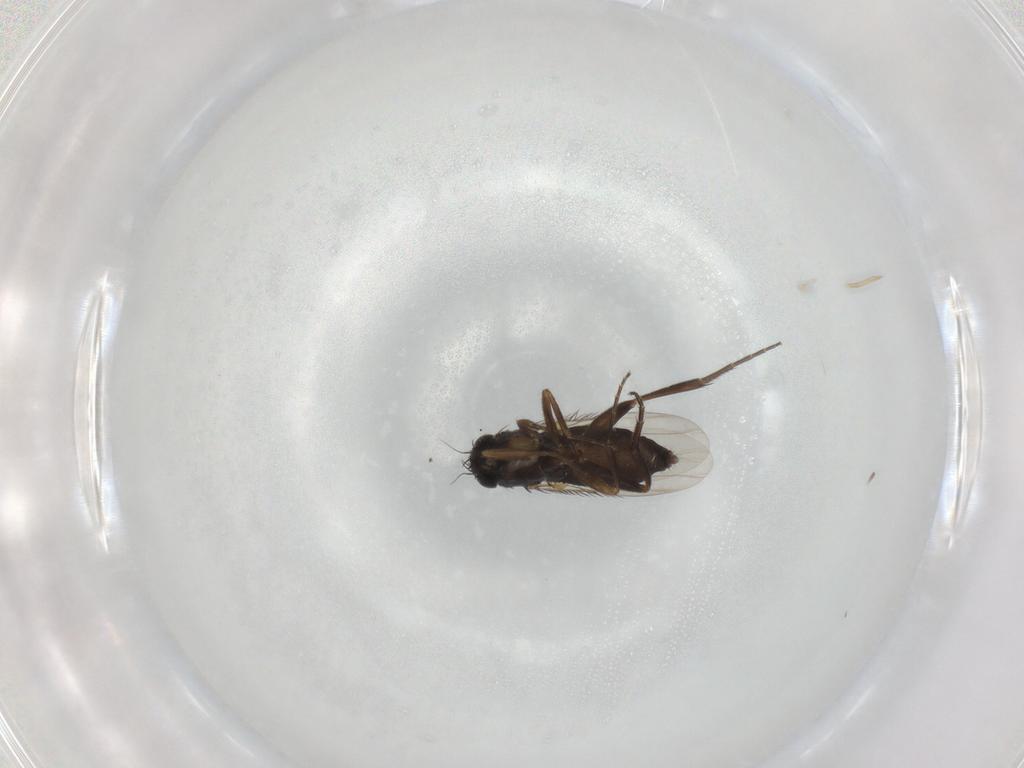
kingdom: Animalia
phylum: Arthropoda
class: Insecta
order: Diptera
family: Phoridae
